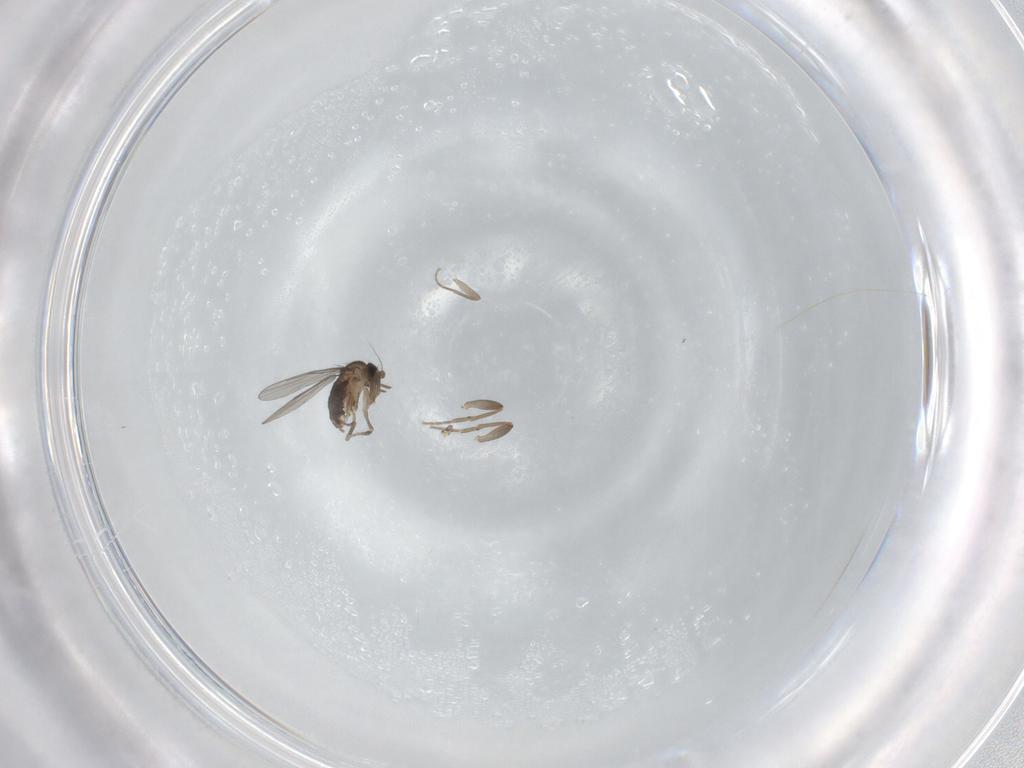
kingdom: Animalia
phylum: Arthropoda
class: Insecta
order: Diptera
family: Phoridae
